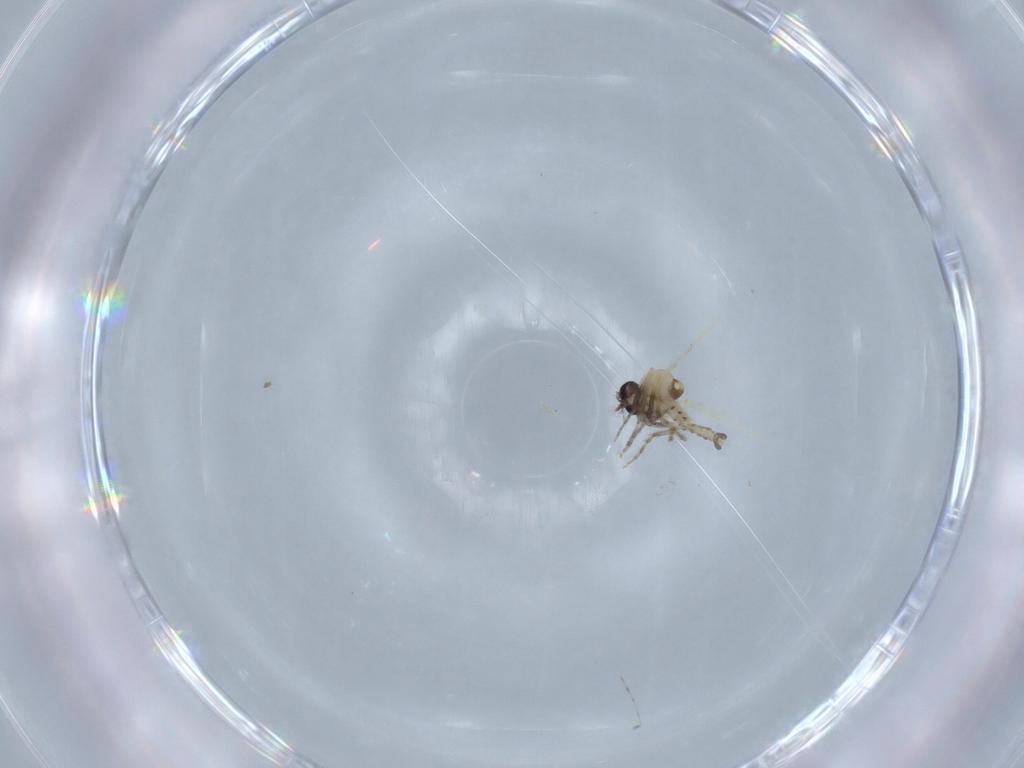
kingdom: Animalia
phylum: Arthropoda
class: Insecta
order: Diptera
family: Ceratopogonidae
